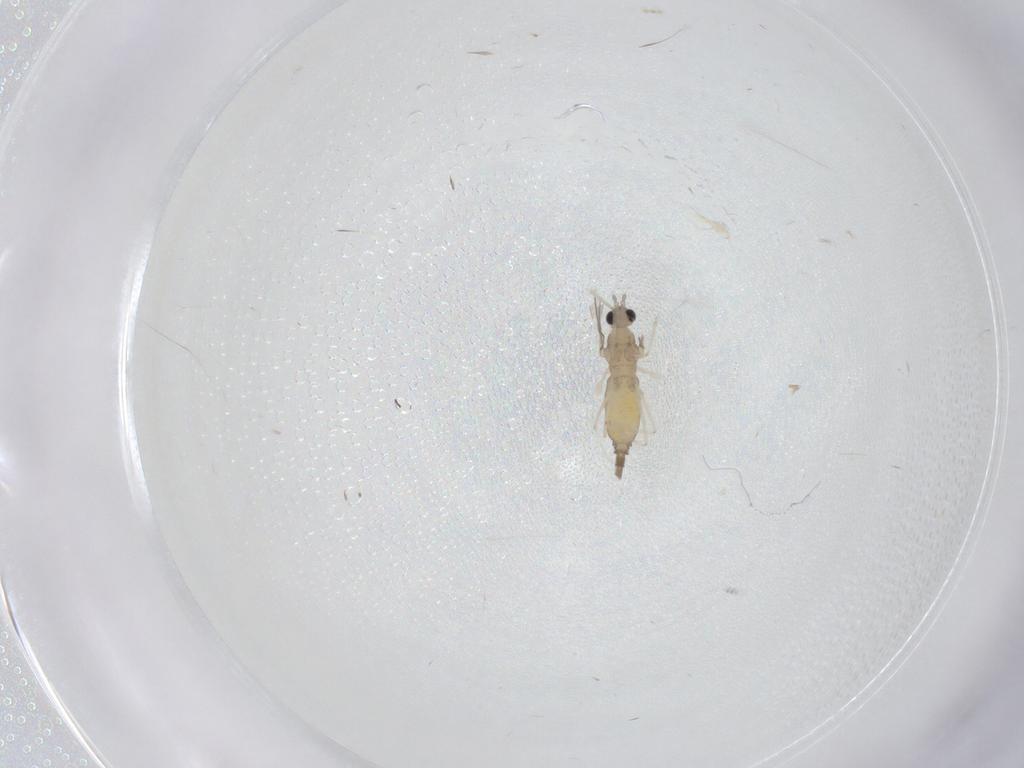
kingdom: Animalia
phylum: Arthropoda
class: Insecta
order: Diptera
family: Cecidomyiidae
